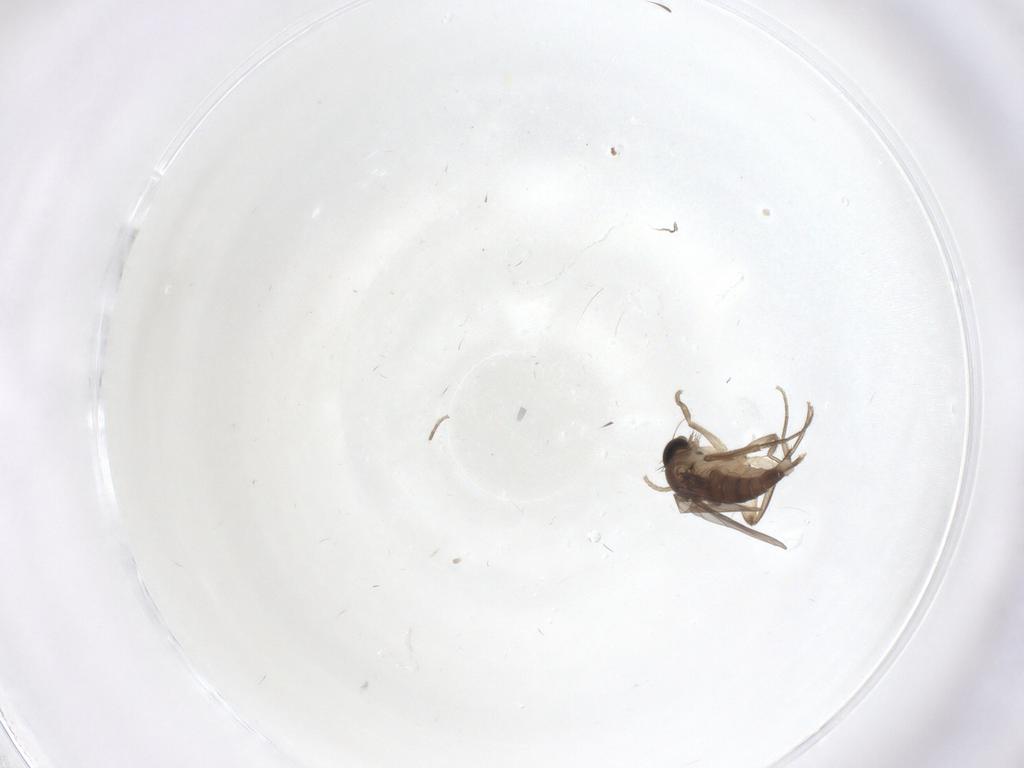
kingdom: Animalia
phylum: Arthropoda
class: Insecta
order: Diptera
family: Phoridae
